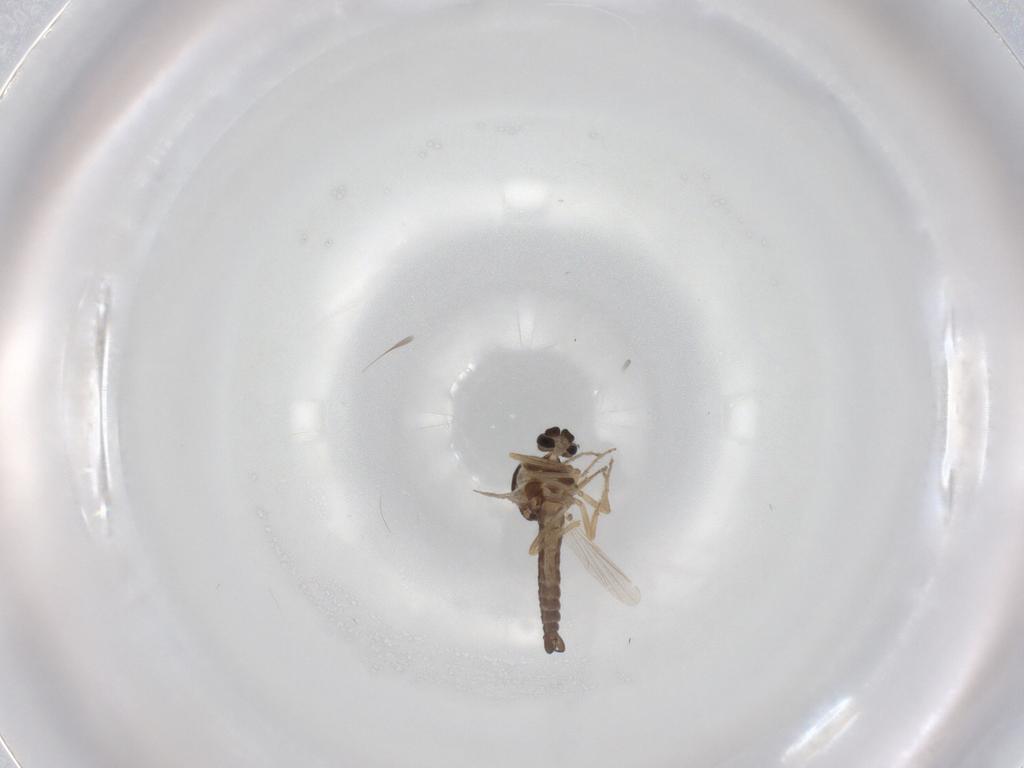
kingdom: Animalia
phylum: Arthropoda
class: Insecta
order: Diptera
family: Ceratopogonidae
